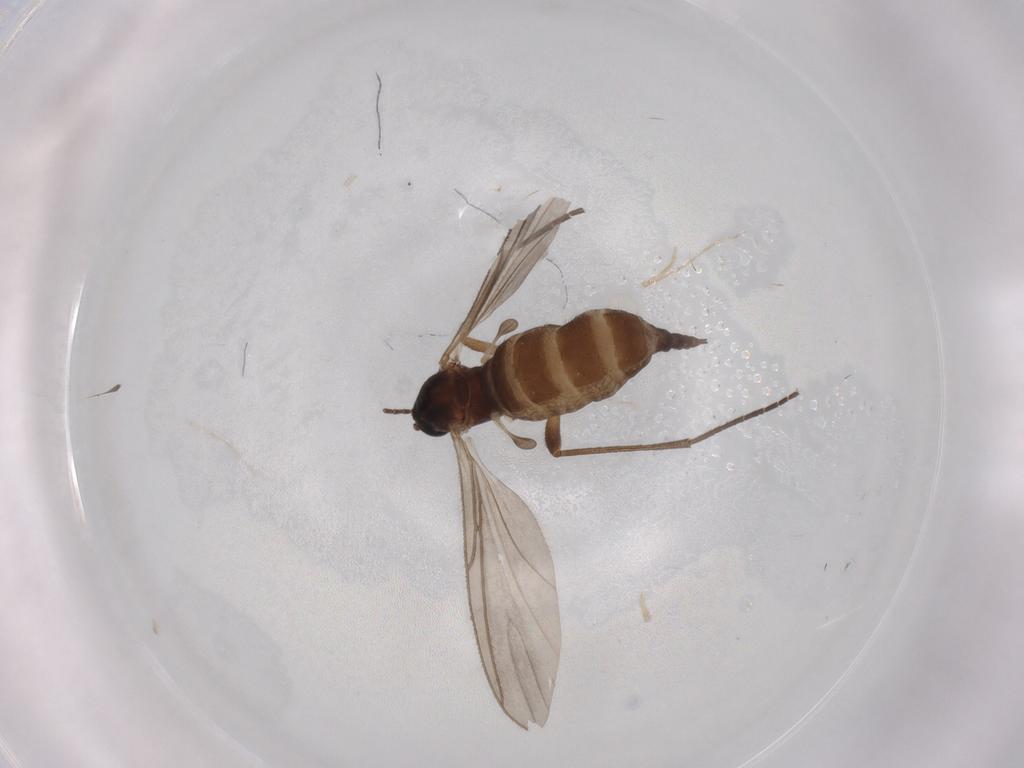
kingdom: Animalia
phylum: Arthropoda
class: Insecta
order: Diptera
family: Sciaridae
